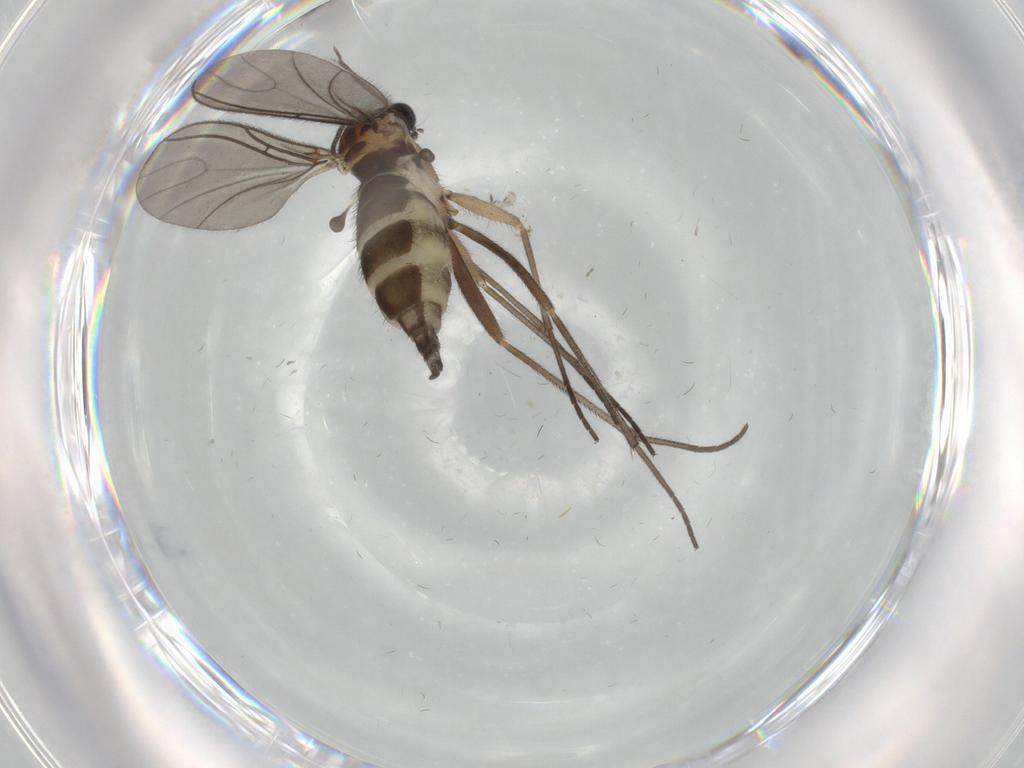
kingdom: Animalia
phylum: Arthropoda
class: Insecta
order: Diptera
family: Sciaridae
